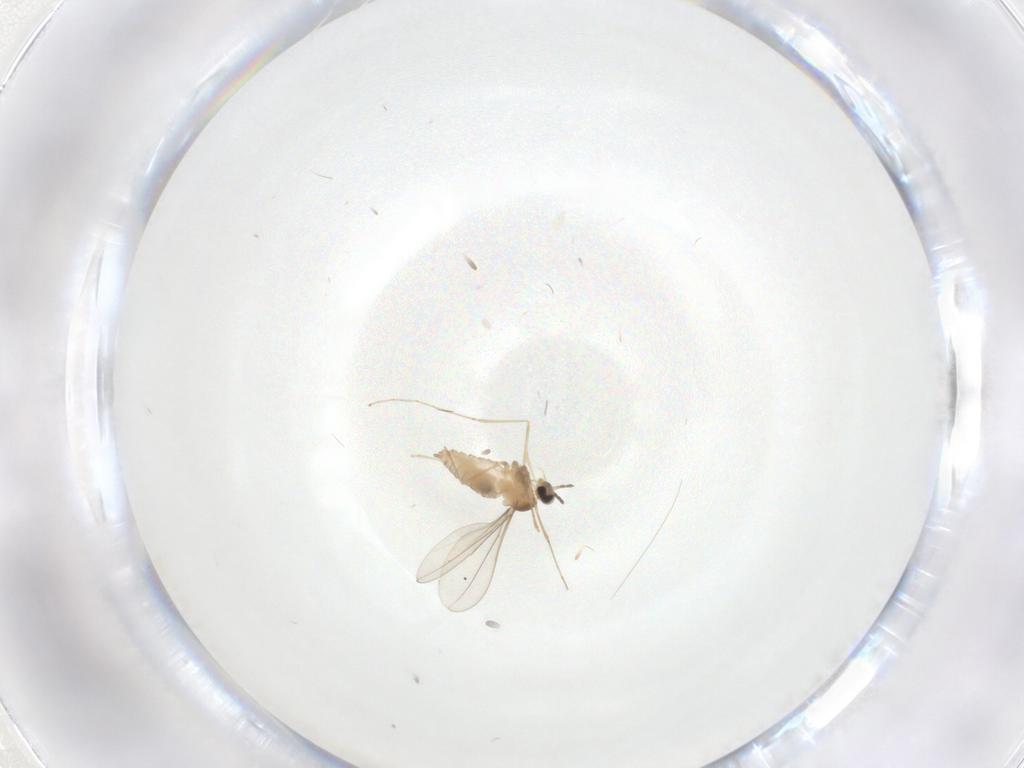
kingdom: Animalia
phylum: Arthropoda
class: Insecta
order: Diptera
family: Cecidomyiidae
